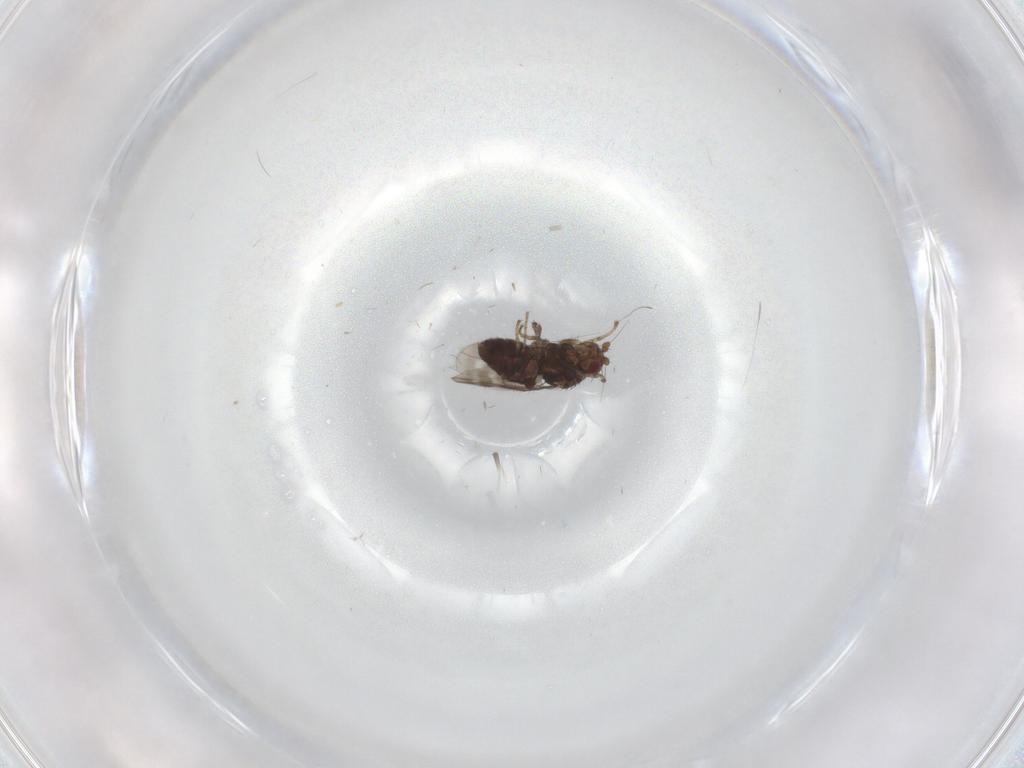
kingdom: Animalia
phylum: Arthropoda
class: Insecta
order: Diptera
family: Sphaeroceridae
